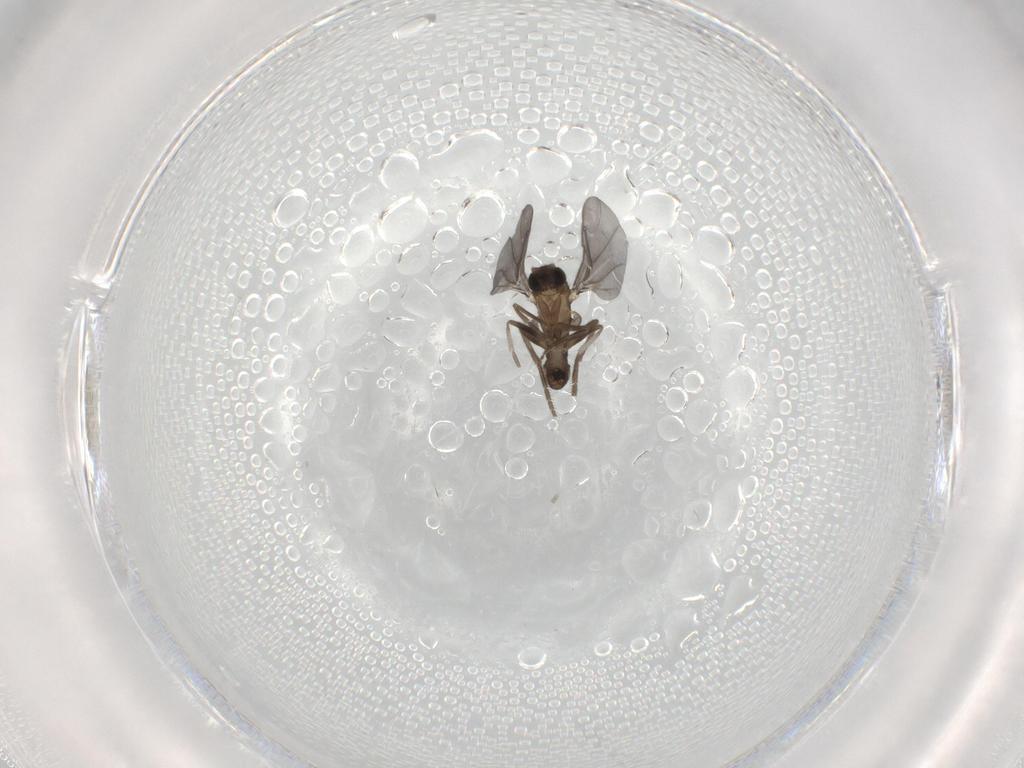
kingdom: Animalia
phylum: Arthropoda
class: Insecta
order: Diptera
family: Phoridae
